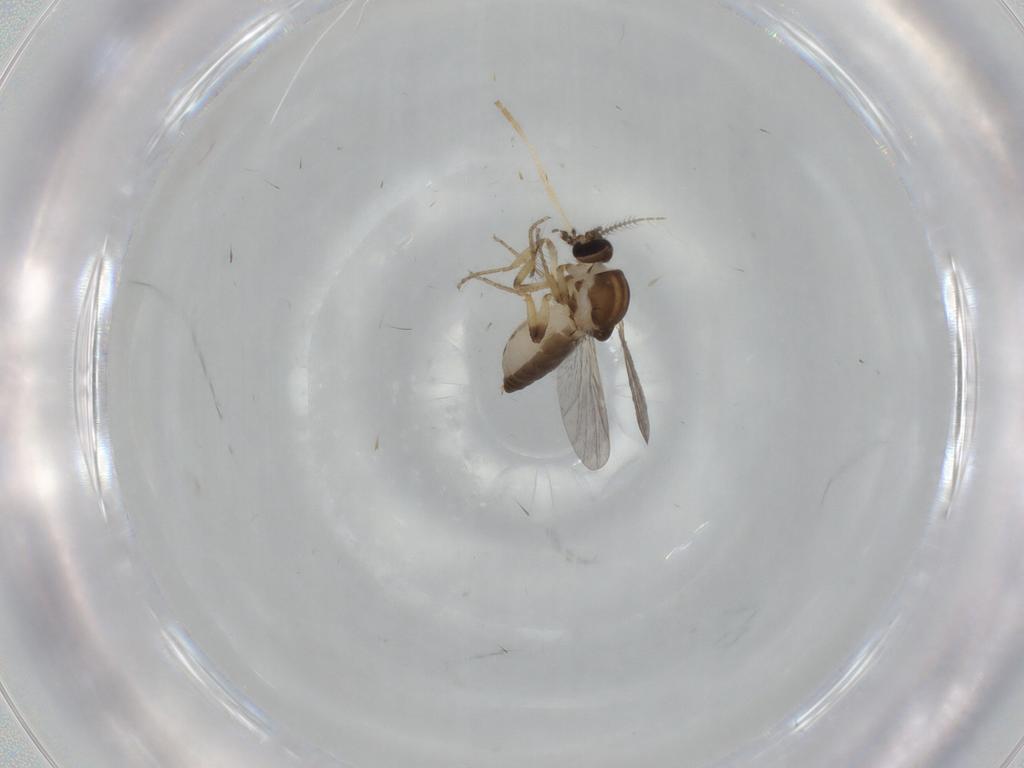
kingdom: Animalia
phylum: Arthropoda
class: Insecta
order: Diptera
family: Ceratopogonidae
